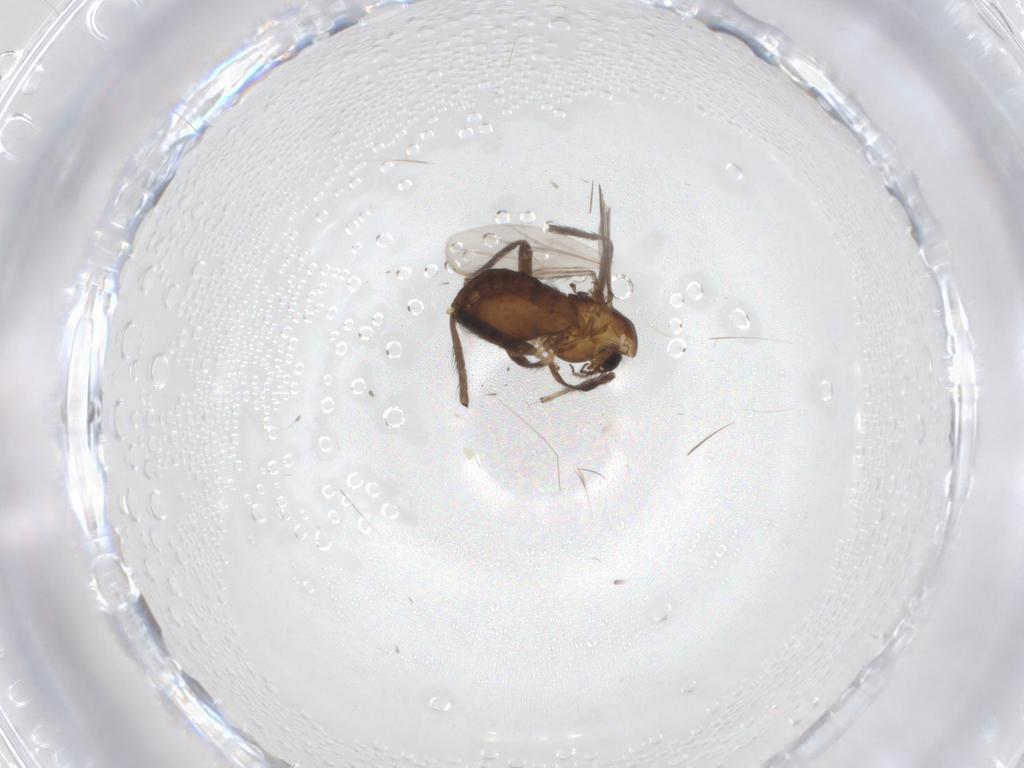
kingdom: Animalia
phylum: Arthropoda
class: Insecta
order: Diptera
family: Chironomidae
